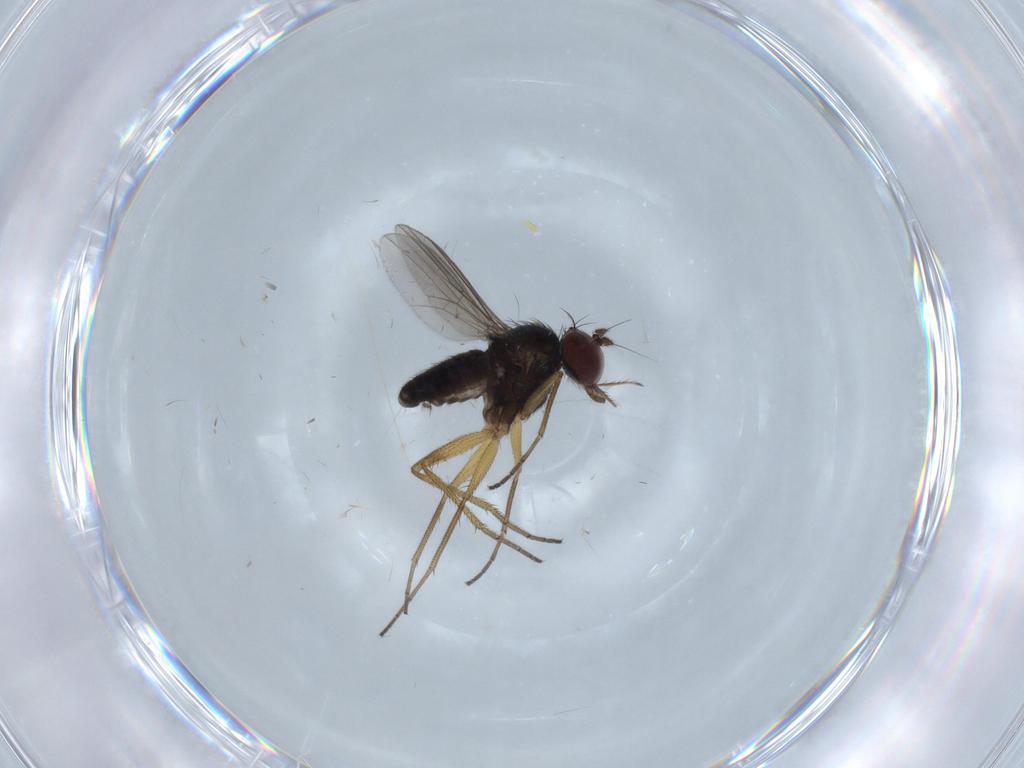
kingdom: Animalia
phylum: Arthropoda
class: Insecta
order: Diptera
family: Dolichopodidae
